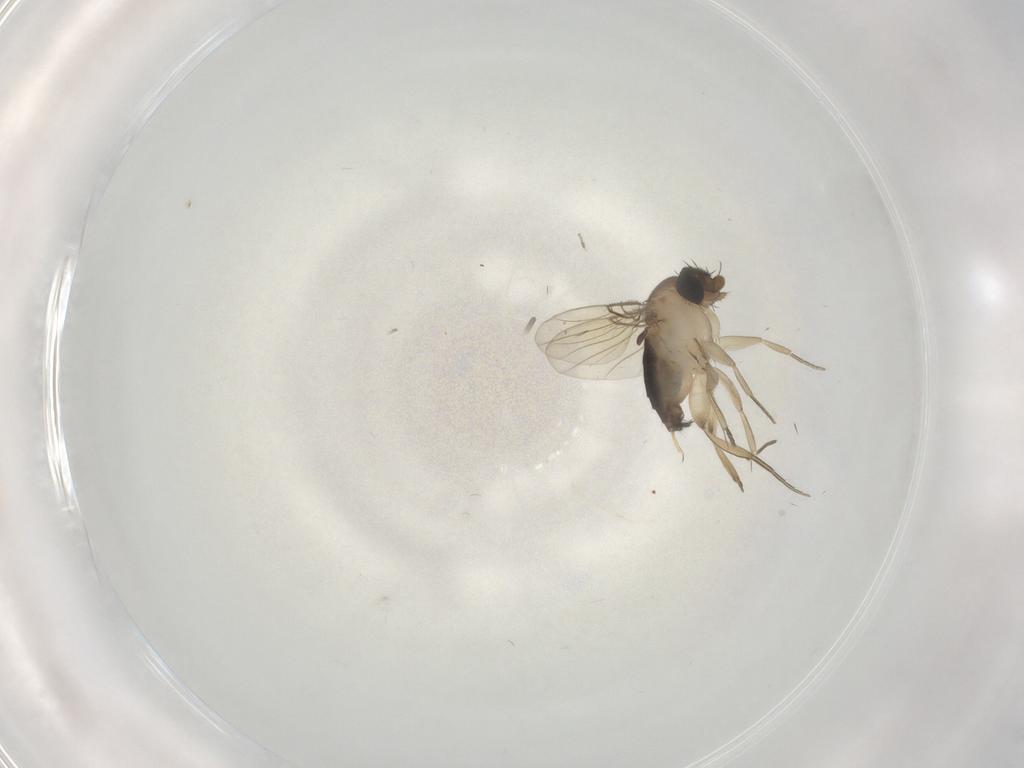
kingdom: Animalia
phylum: Arthropoda
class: Insecta
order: Diptera
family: Phoridae
